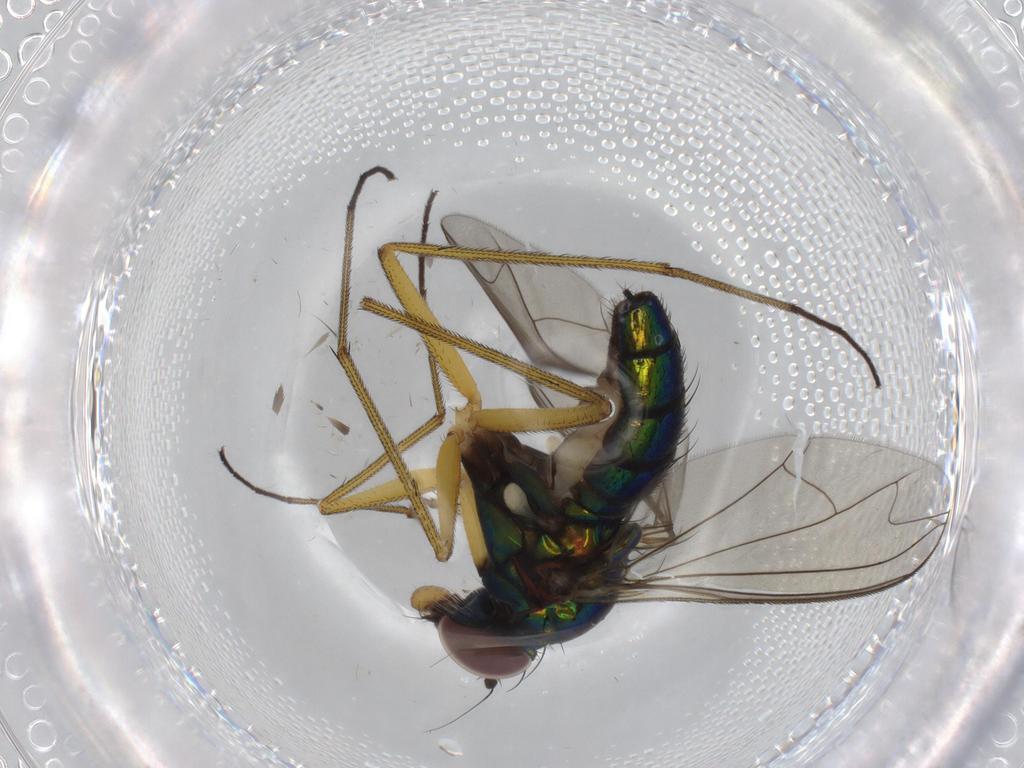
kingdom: Animalia
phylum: Arthropoda
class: Insecta
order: Diptera
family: Dolichopodidae
